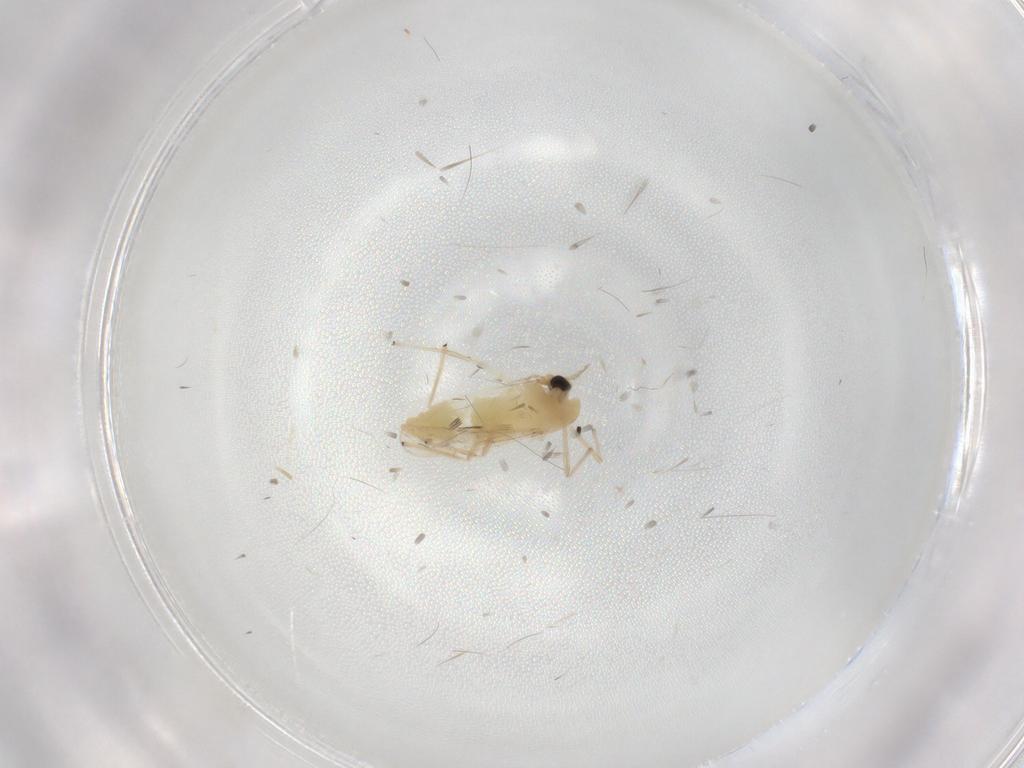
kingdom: Animalia
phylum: Arthropoda
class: Insecta
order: Diptera
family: Chironomidae
